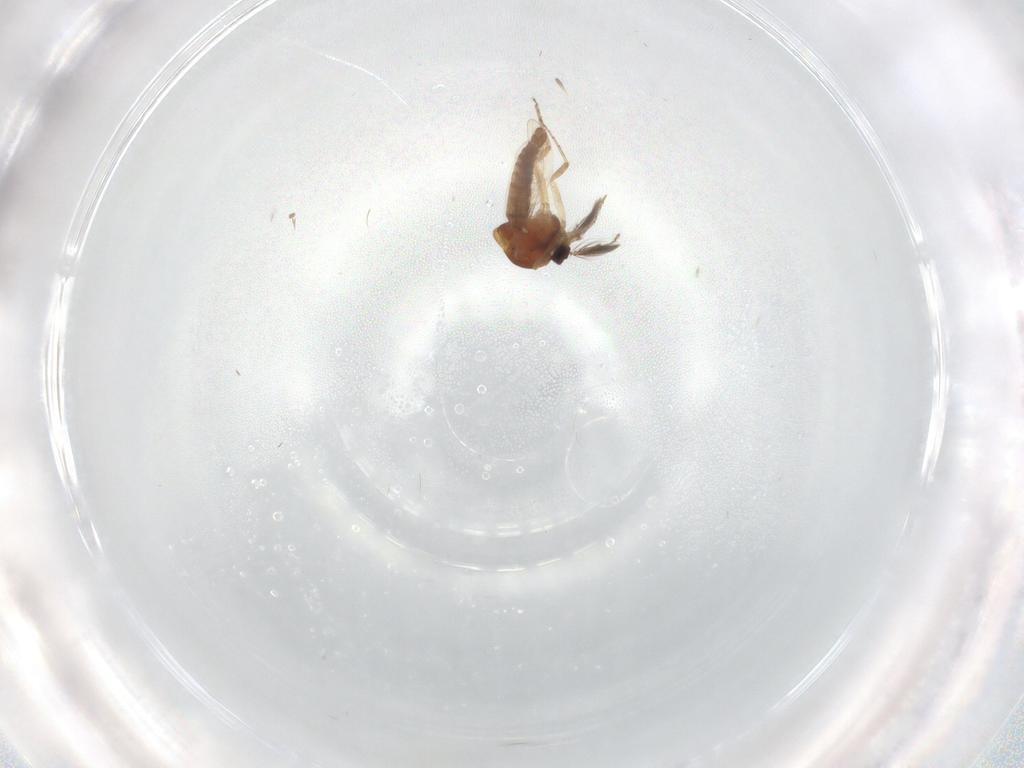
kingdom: Animalia
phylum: Arthropoda
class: Insecta
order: Diptera
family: Ceratopogonidae
